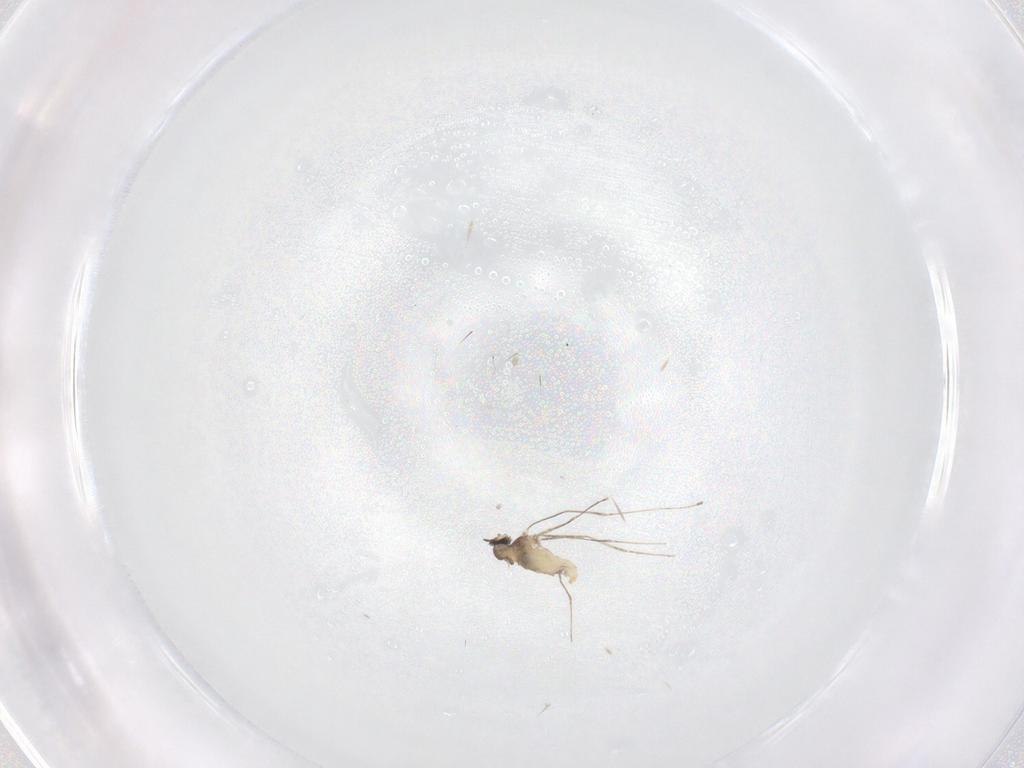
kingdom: Animalia
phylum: Arthropoda
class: Insecta
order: Diptera
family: Cecidomyiidae
